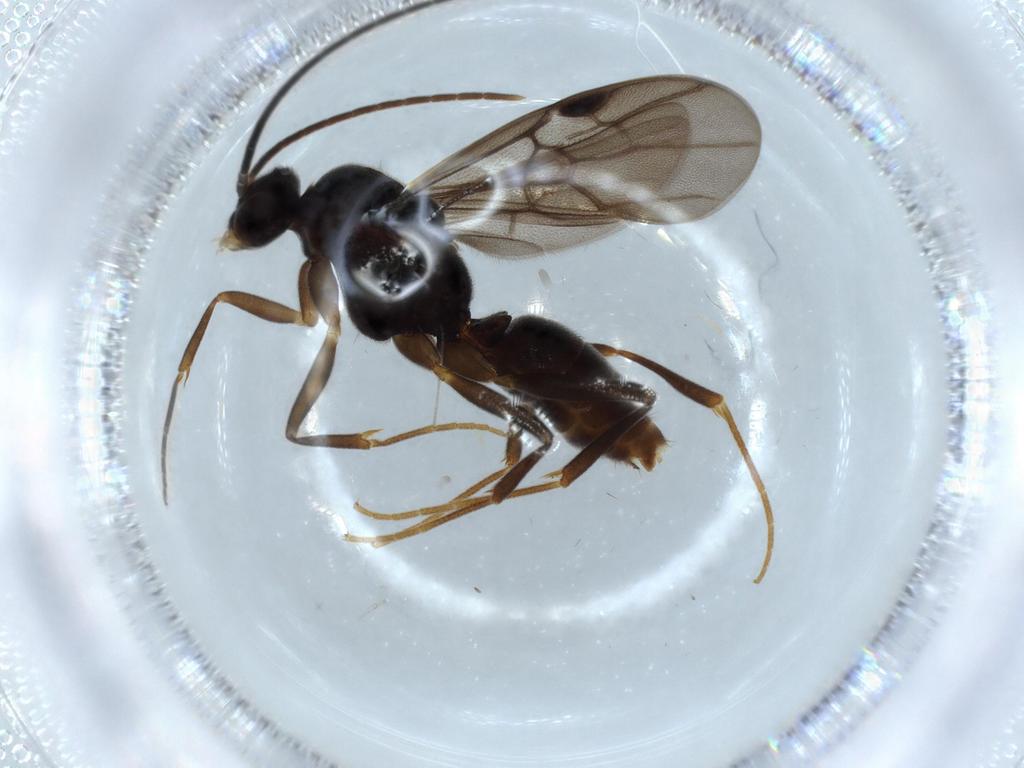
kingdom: Animalia
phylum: Arthropoda
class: Insecta
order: Hymenoptera
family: Formicidae
